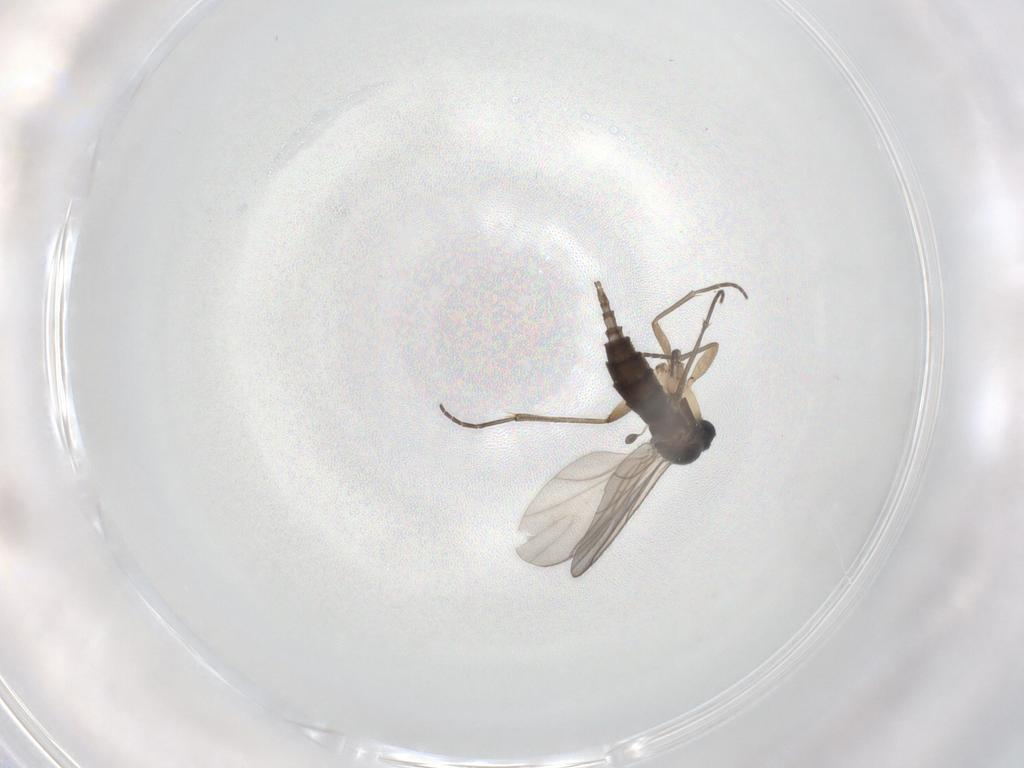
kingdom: Animalia
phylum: Arthropoda
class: Insecta
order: Diptera
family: Sciaridae
